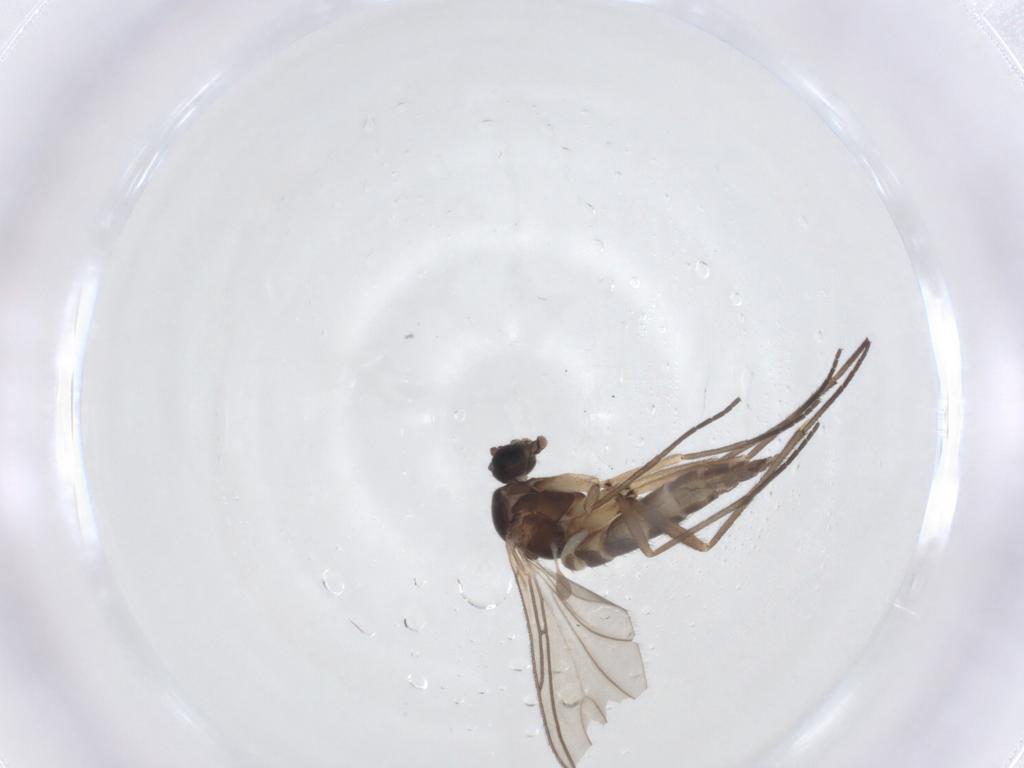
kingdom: Animalia
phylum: Arthropoda
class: Insecta
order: Diptera
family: Sciaridae
